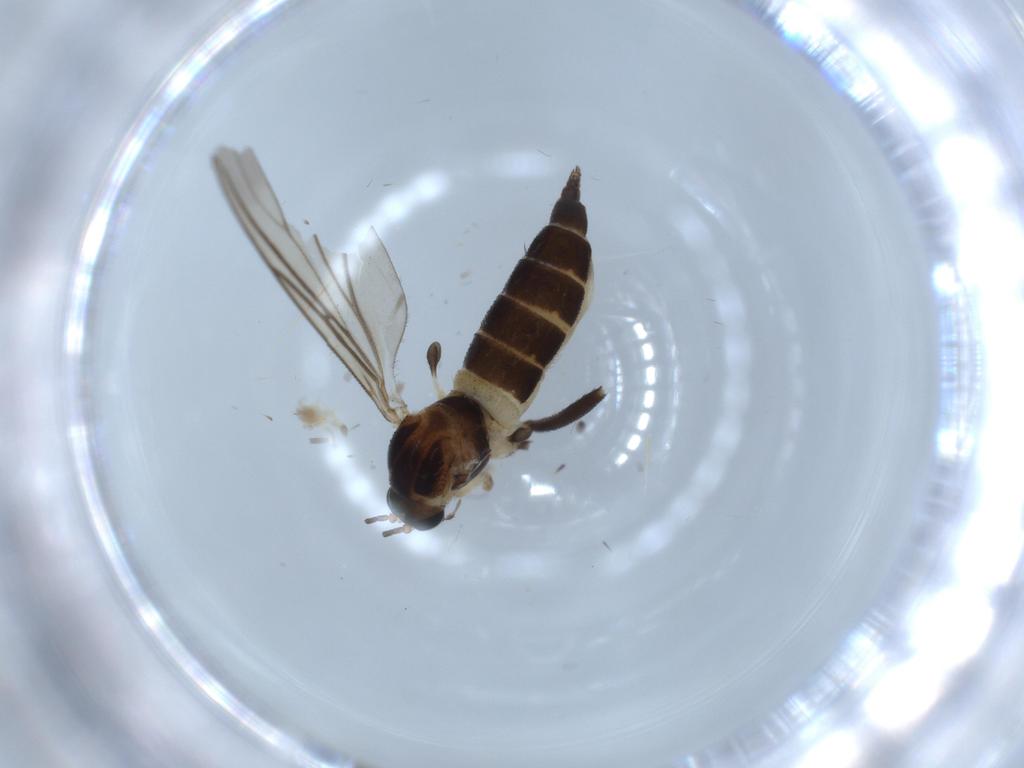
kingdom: Animalia
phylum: Arthropoda
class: Insecta
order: Diptera
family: Sciaridae
